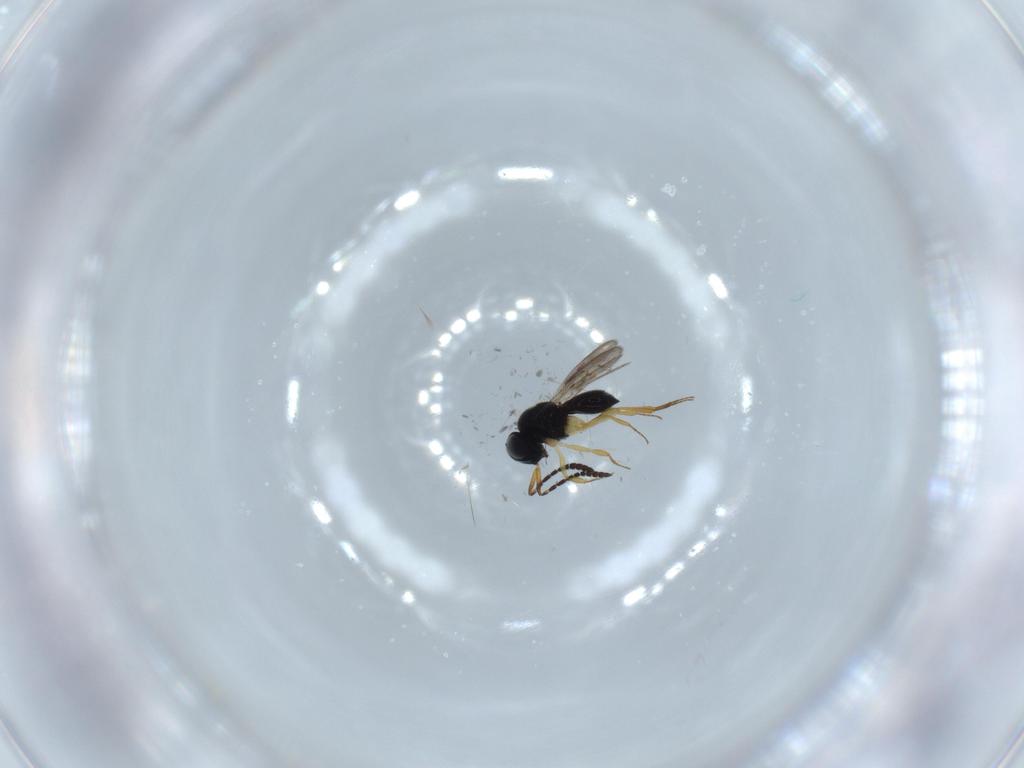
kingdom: Animalia
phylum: Arthropoda
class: Insecta
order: Hymenoptera
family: Scelionidae
